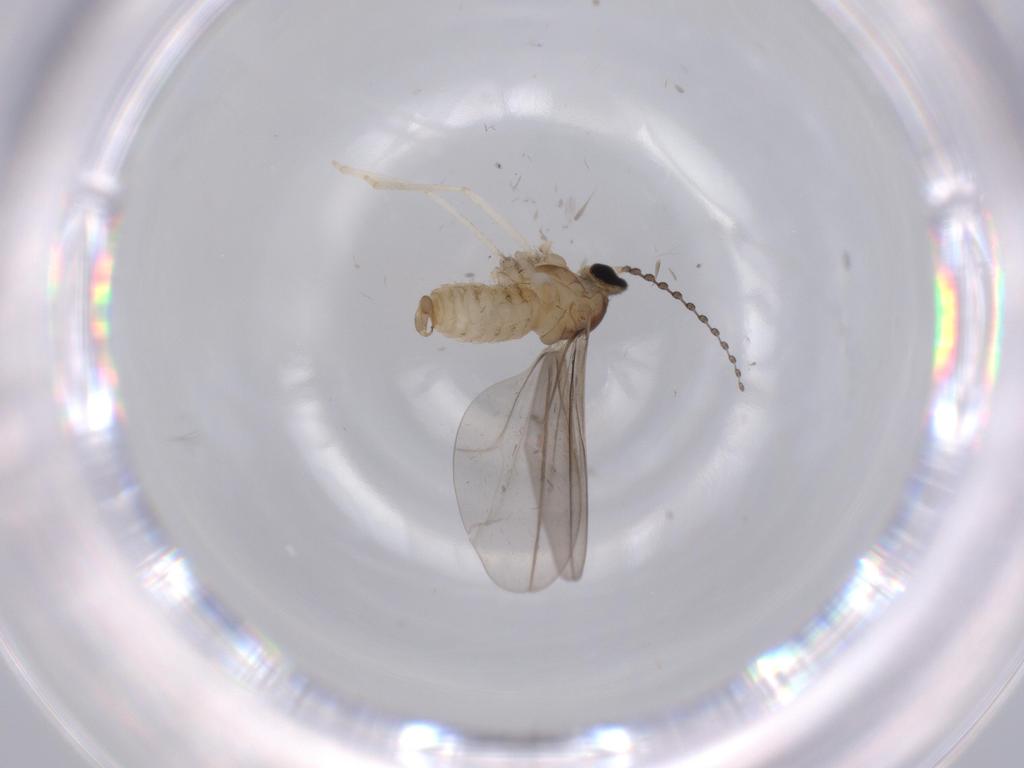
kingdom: Animalia
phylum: Arthropoda
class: Insecta
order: Diptera
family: Cecidomyiidae
